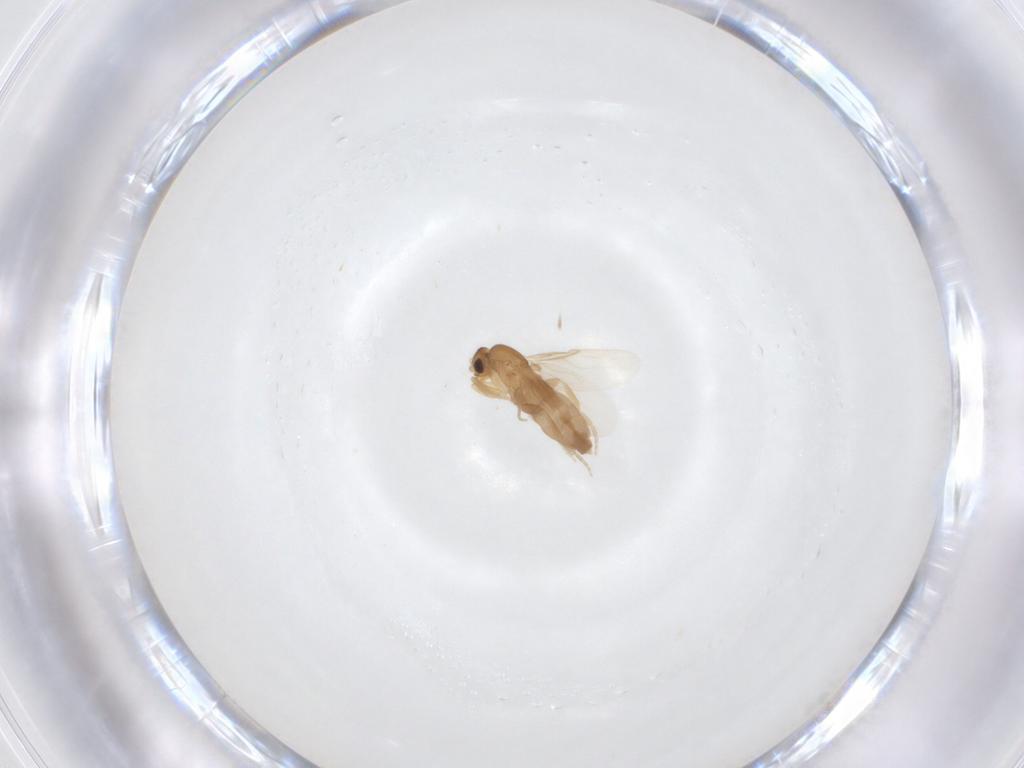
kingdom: Animalia
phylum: Arthropoda
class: Insecta
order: Diptera
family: Phoridae
